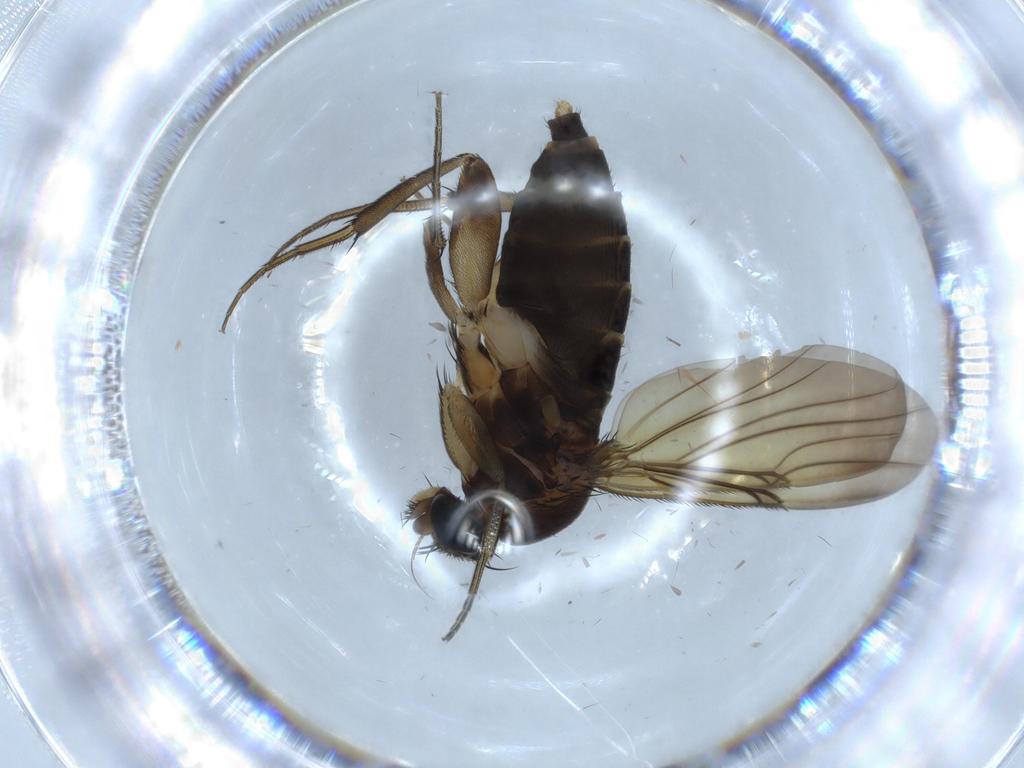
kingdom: Animalia
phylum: Arthropoda
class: Insecta
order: Diptera
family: Phoridae
